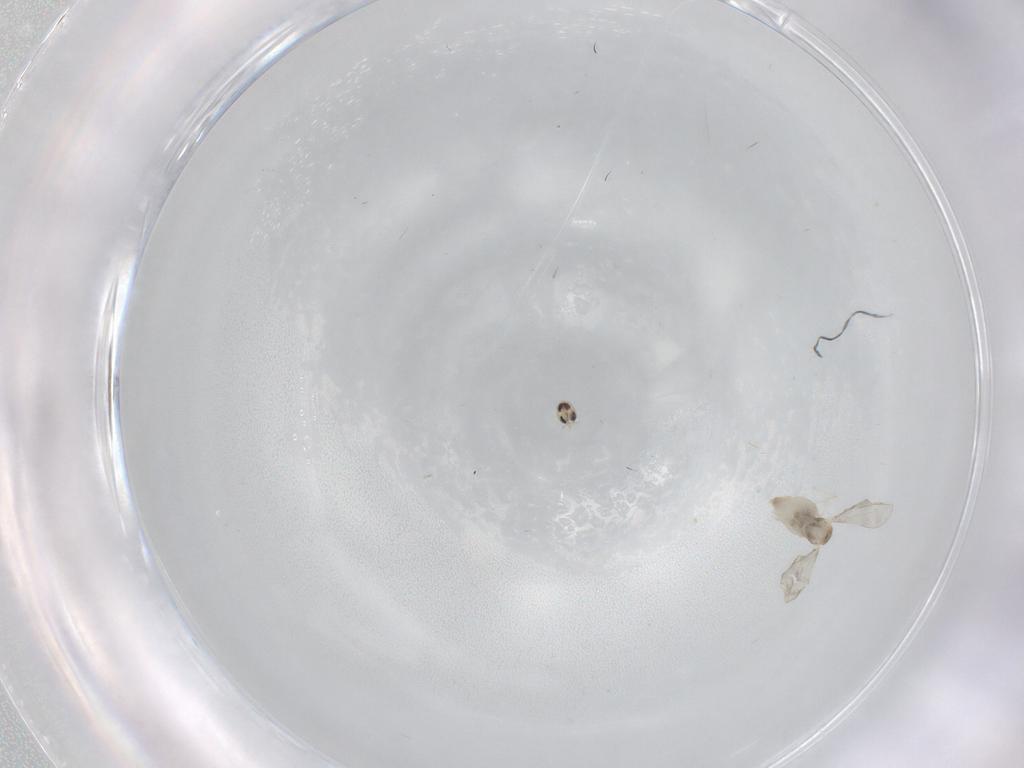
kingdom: Animalia
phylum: Arthropoda
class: Insecta
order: Diptera
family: Cecidomyiidae
